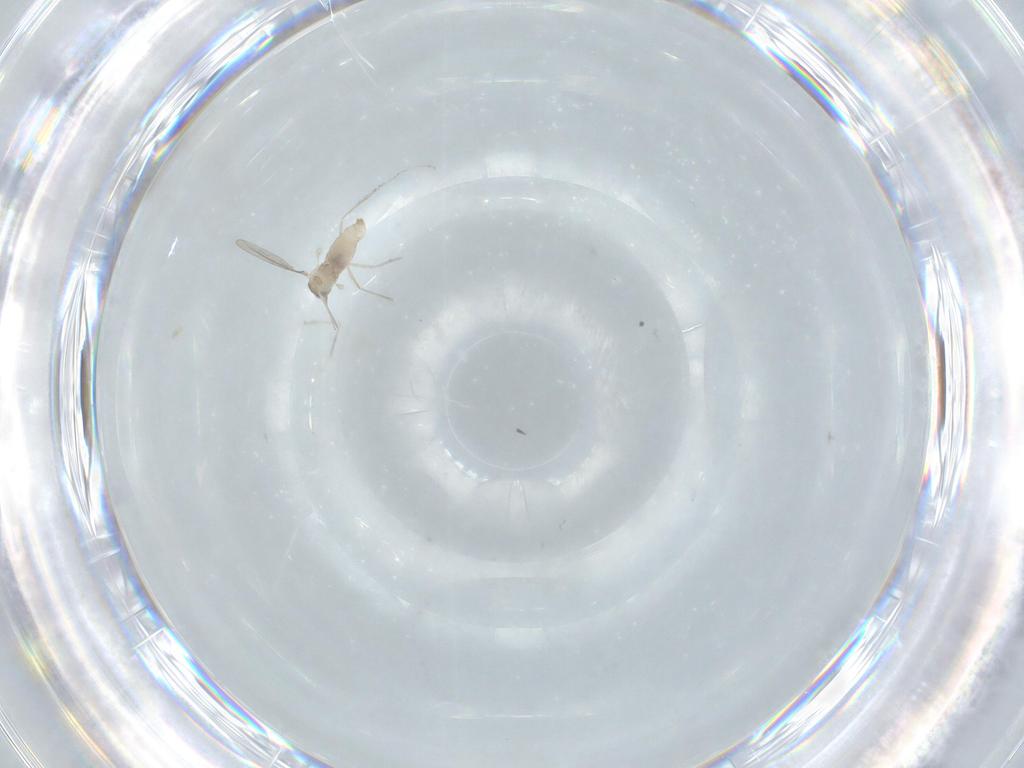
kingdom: Animalia
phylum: Arthropoda
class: Insecta
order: Diptera
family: Cecidomyiidae
